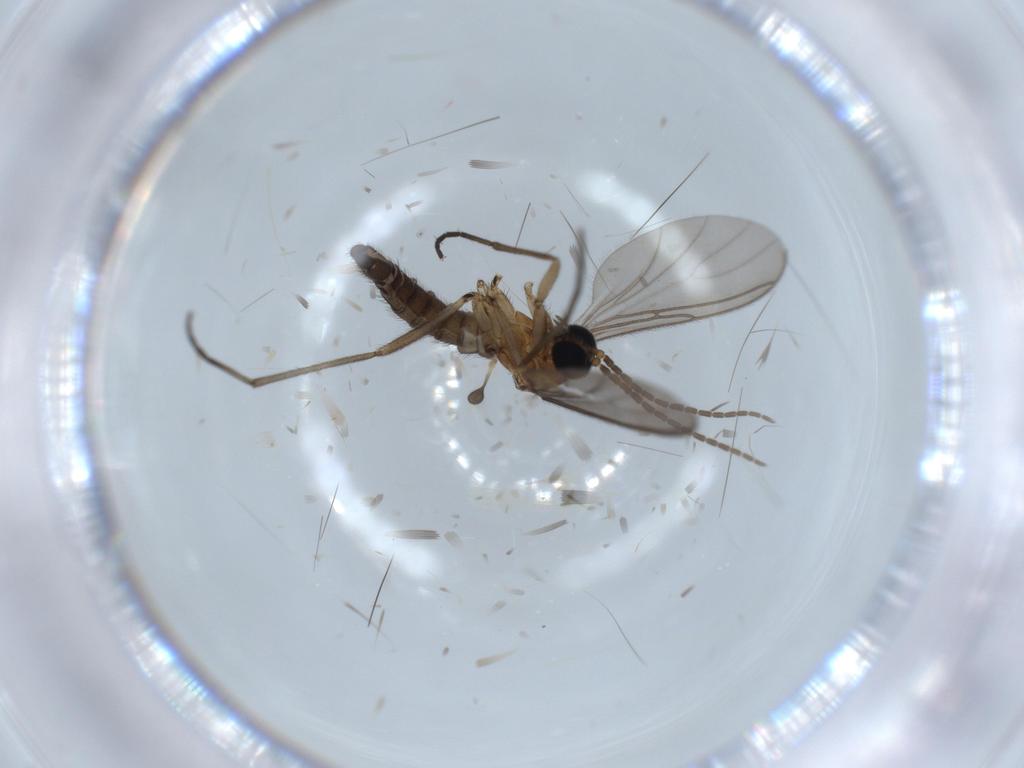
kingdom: Animalia
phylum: Arthropoda
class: Insecta
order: Diptera
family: Sciaridae
